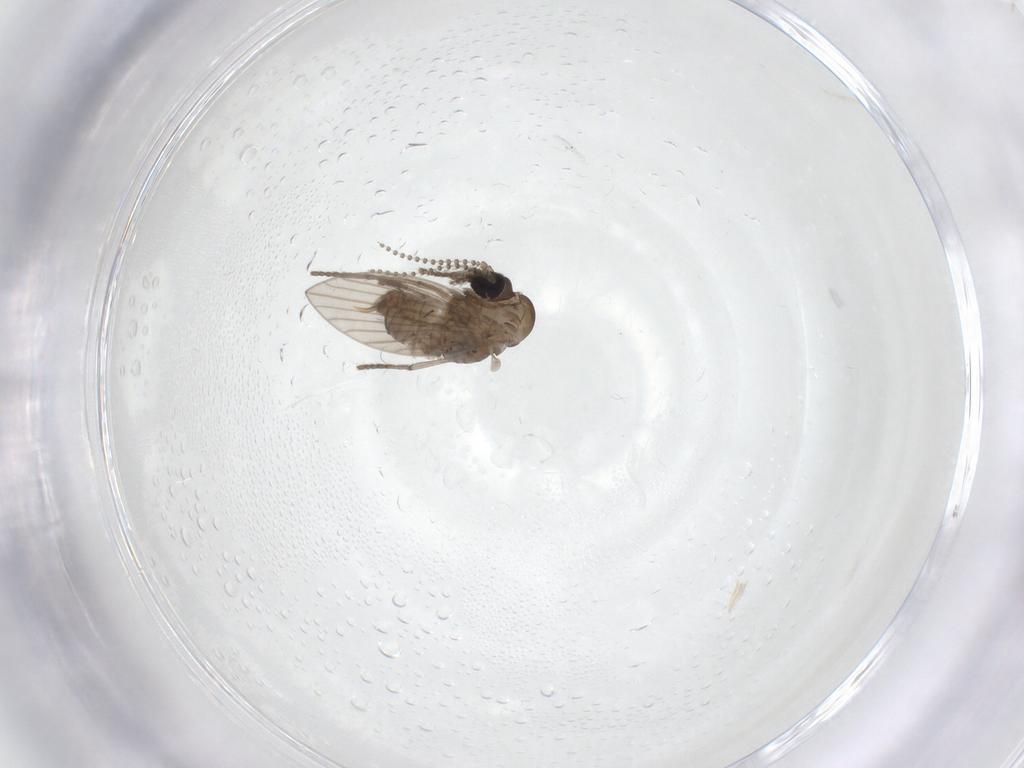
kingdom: Animalia
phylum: Arthropoda
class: Insecta
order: Diptera
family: Psychodidae
